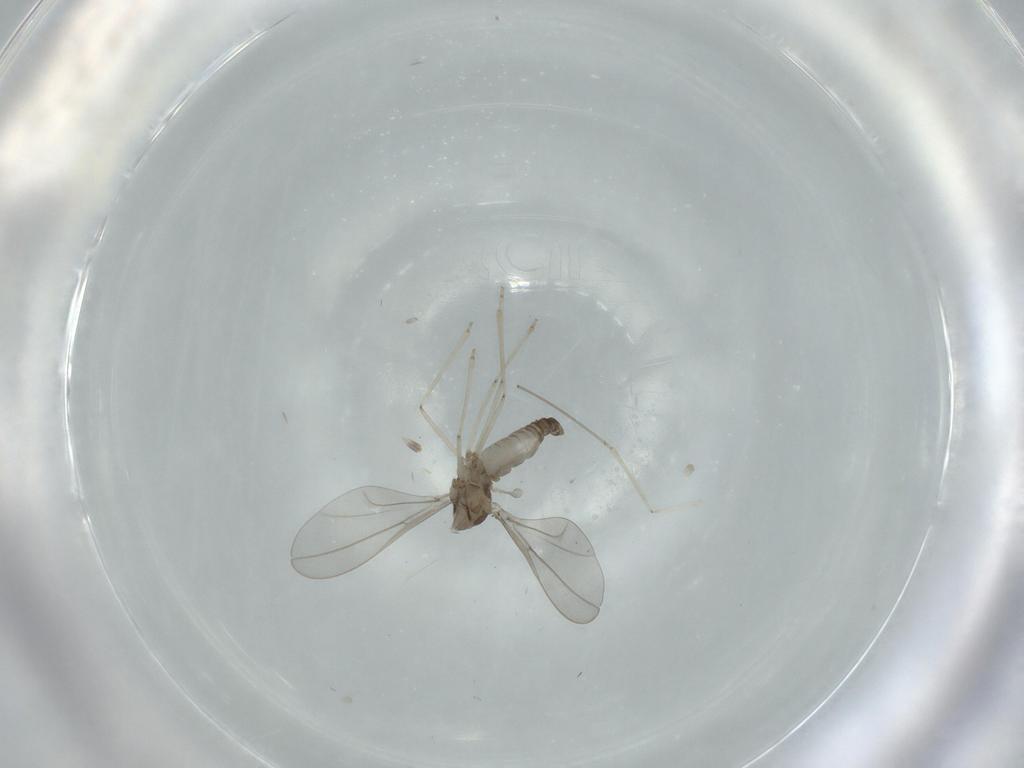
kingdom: Animalia
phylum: Arthropoda
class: Insecta
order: Diptera
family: Cecidomyiidae
